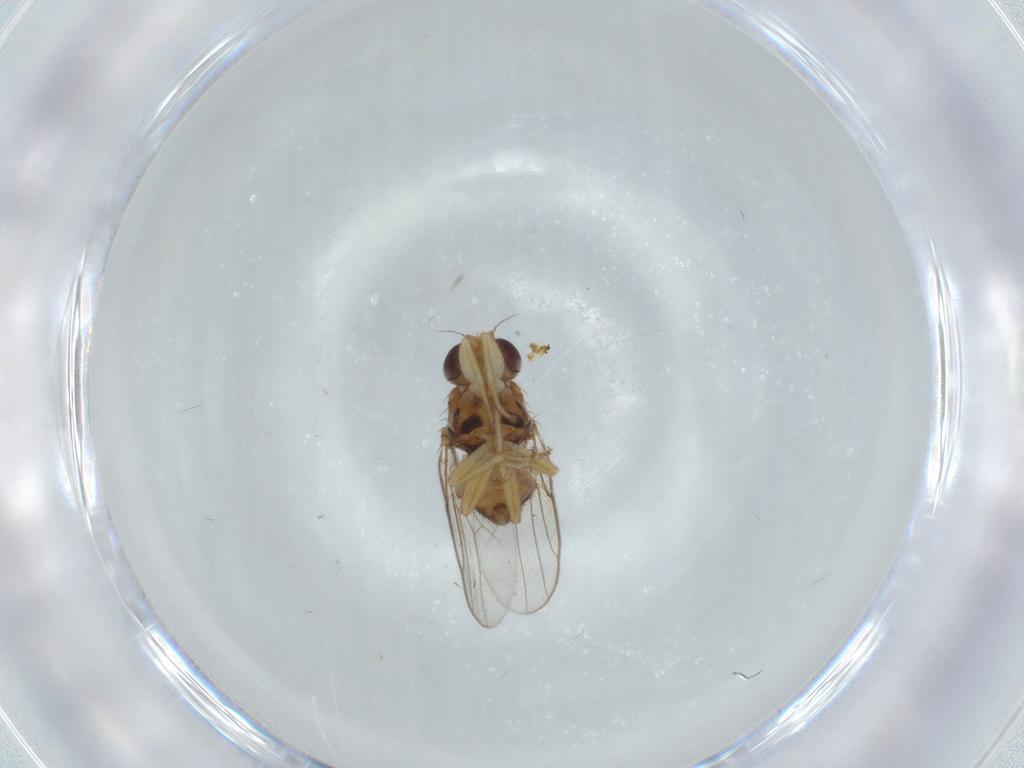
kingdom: Animalia
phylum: Arthropoda
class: Insecta
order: Diptera
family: Chloropidae
